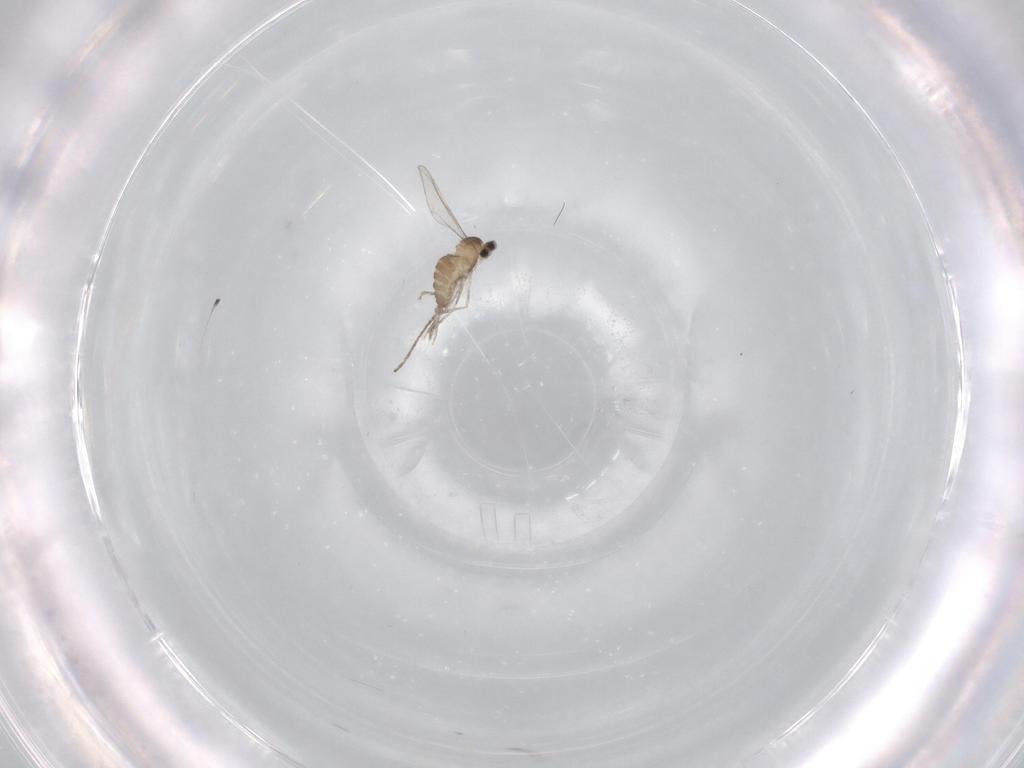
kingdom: Animalia
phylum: Arthropoda
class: Insecta
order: Diptera
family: Cecidomyiidae
